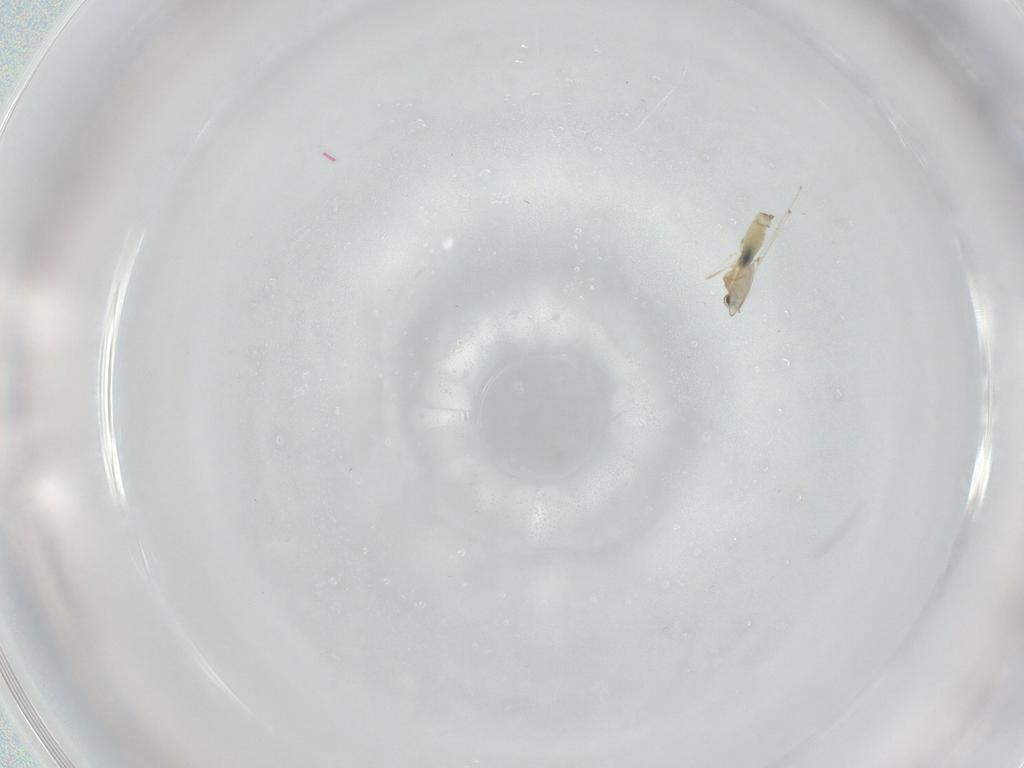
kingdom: Animalia
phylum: Arthropoda
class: Insecta
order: Diptera
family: Cecidomyiidae
